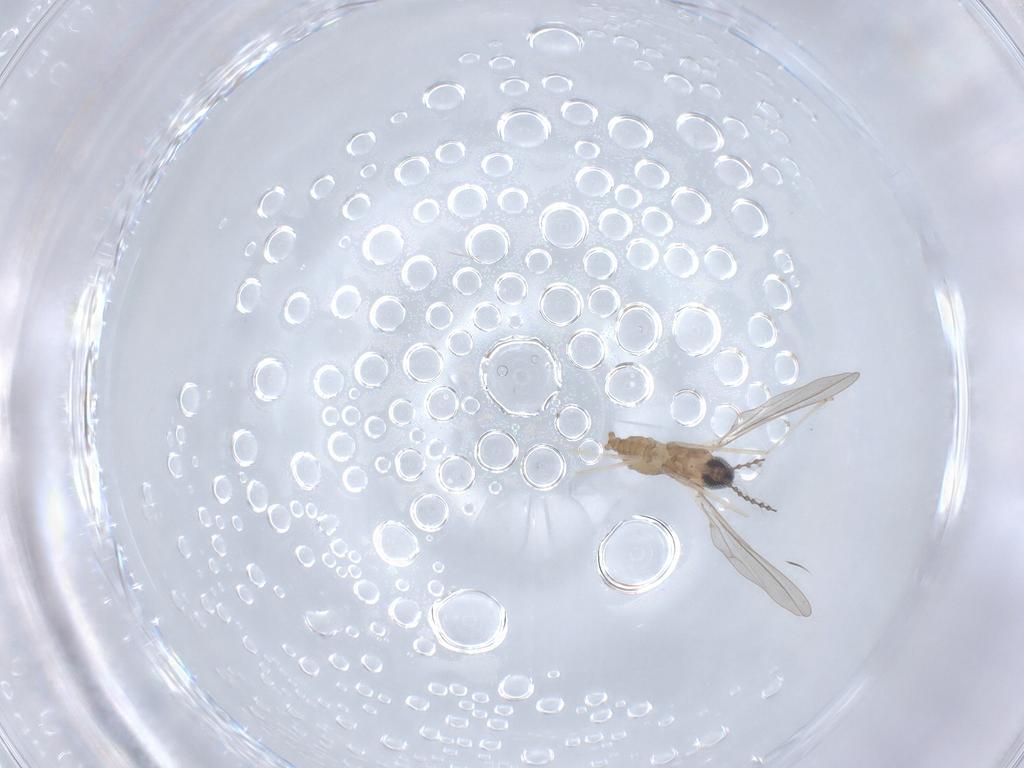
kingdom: Animalia
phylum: Arthropoda
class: Insecta
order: Diptera
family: Cecidomyiidae
